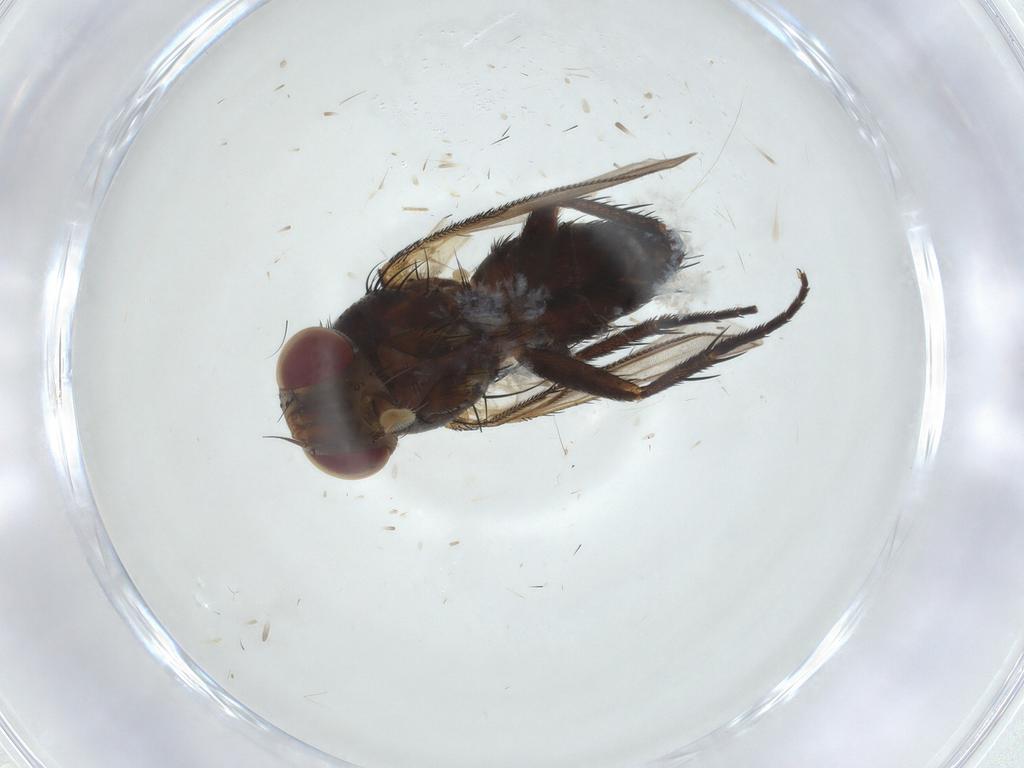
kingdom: Animalia
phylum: Arthropoda
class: Insecta
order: Diptera
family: Tachinidae
